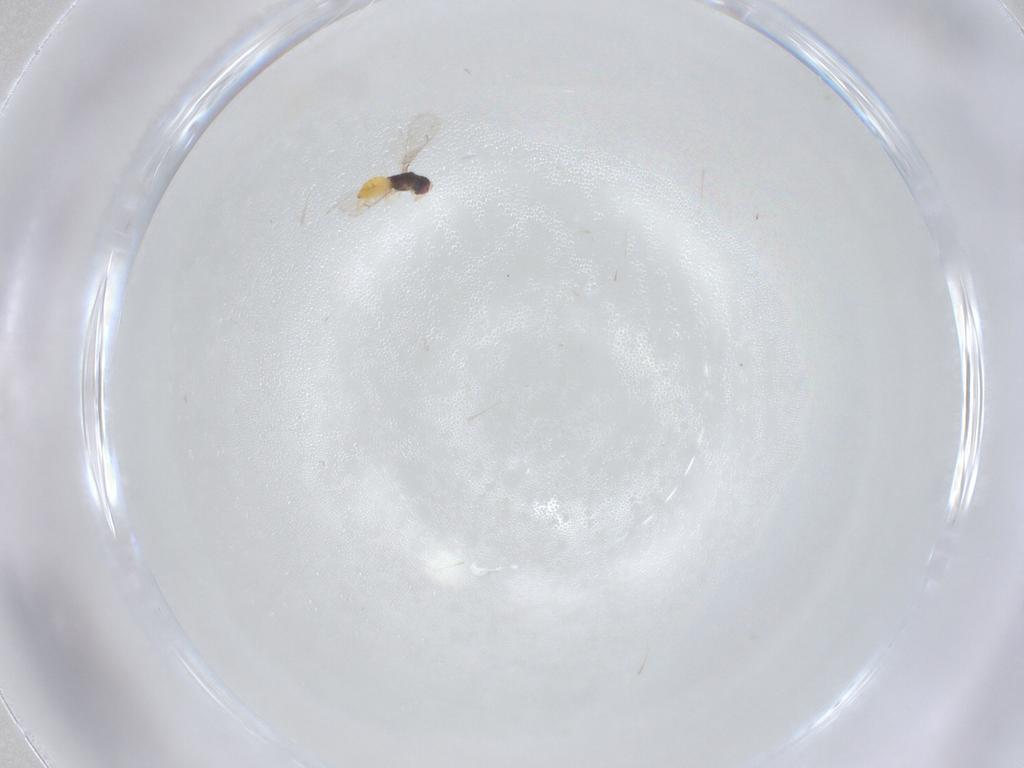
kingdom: Animalia
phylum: Arthropoda
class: Insecta
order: Hymenoptera
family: Eulophidae
